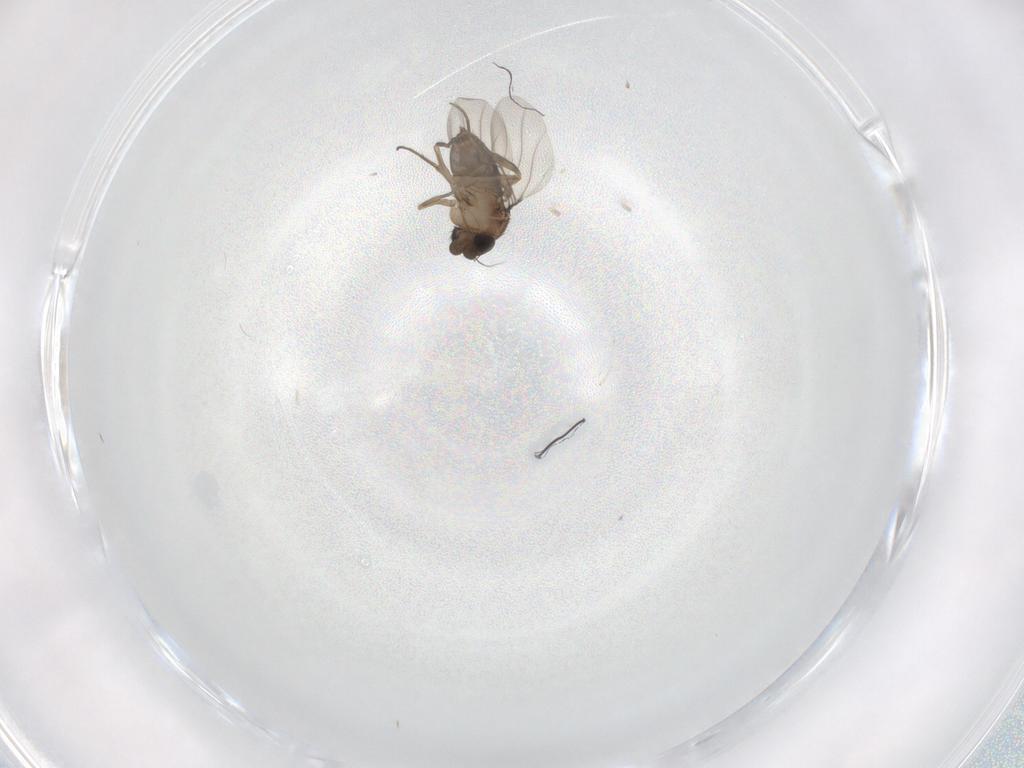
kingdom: Animalia
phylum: Arthropoda
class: Insecta
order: Diptera
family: Phoridae
